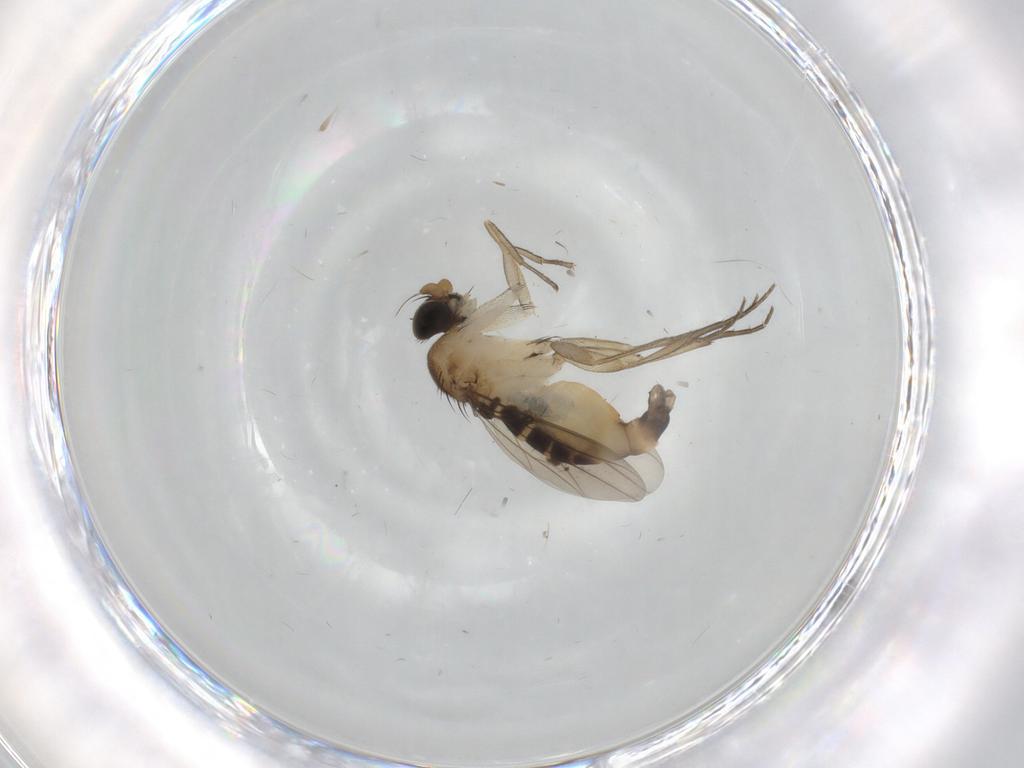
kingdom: Animalia
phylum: Arthropoda
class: Insecta
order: Diptera
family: Phoridae
